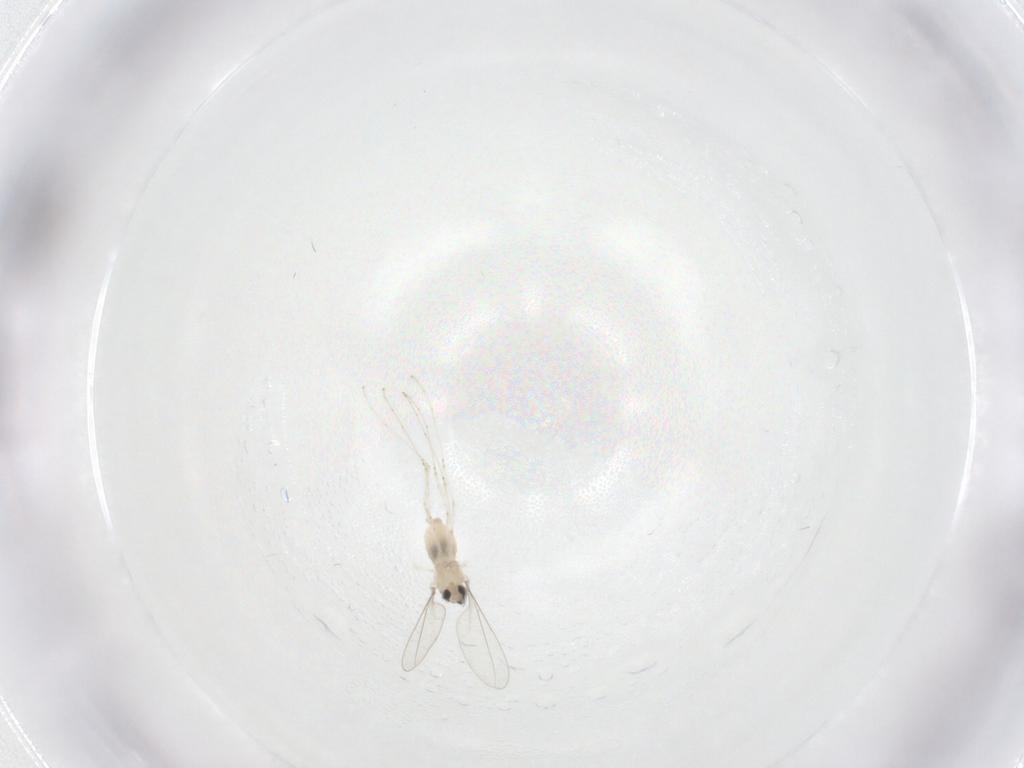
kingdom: Animalia
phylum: Arthropoda
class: Insecta
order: Diptera
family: Cecidomyiidae
